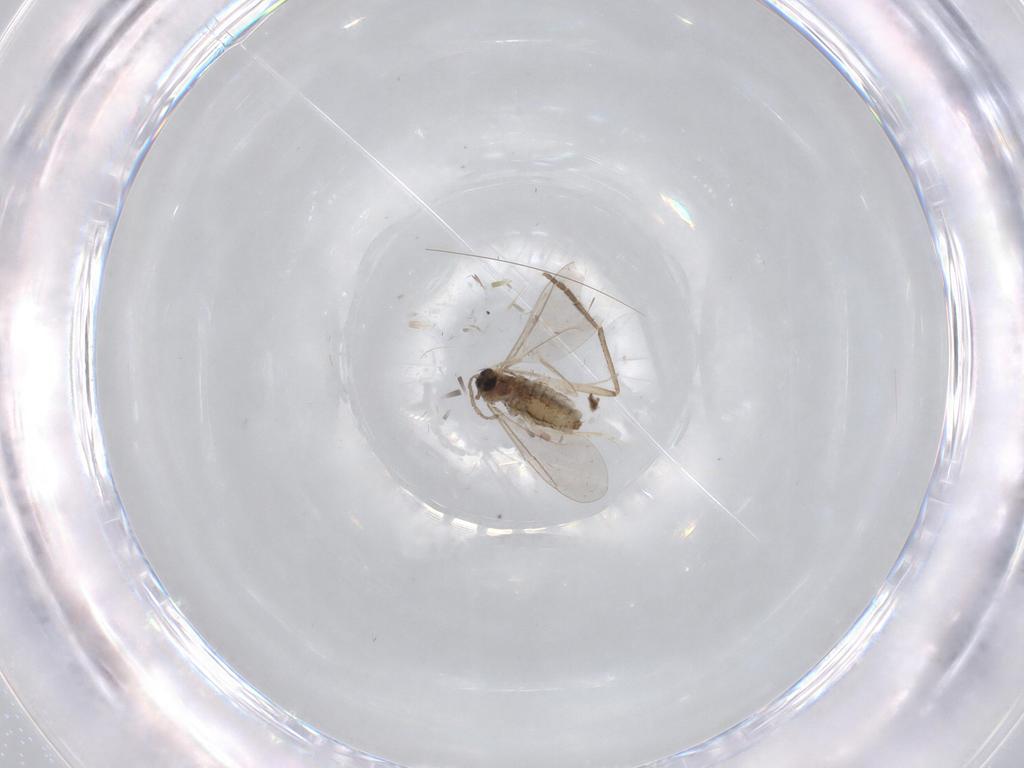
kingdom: Animalia
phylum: Arthropoda
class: Insecta
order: Diptera
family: Cecidomyiidae
